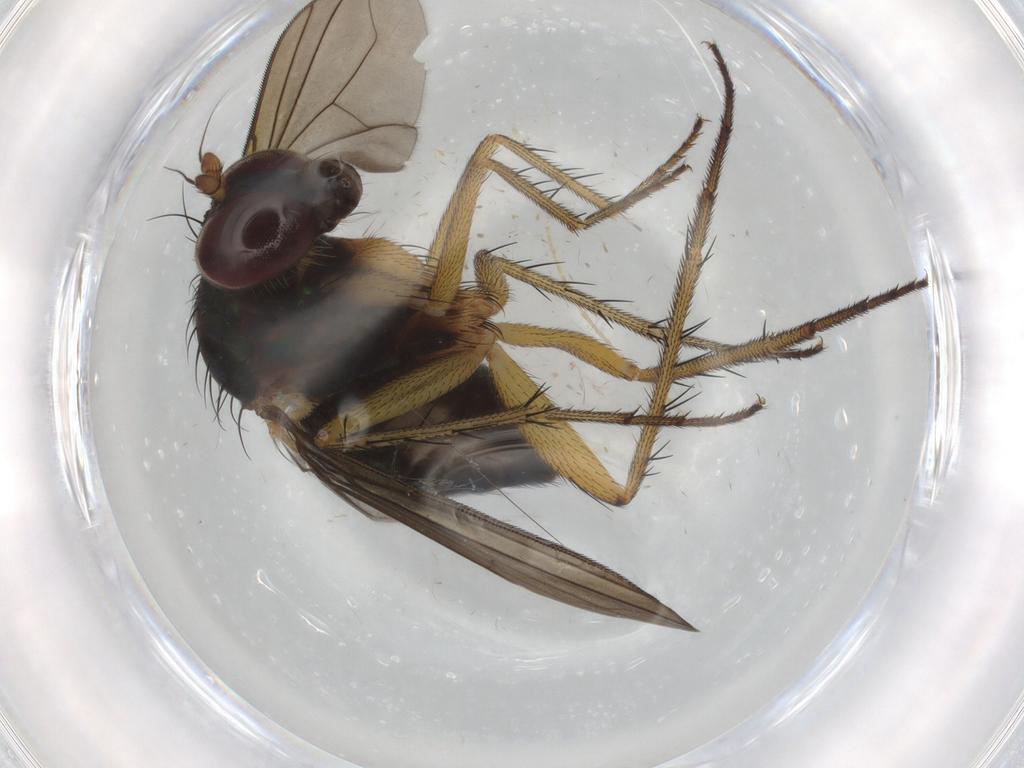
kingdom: Animalia
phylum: Arthropoda
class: Insecta
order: Diptera
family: Dolichopodidae
